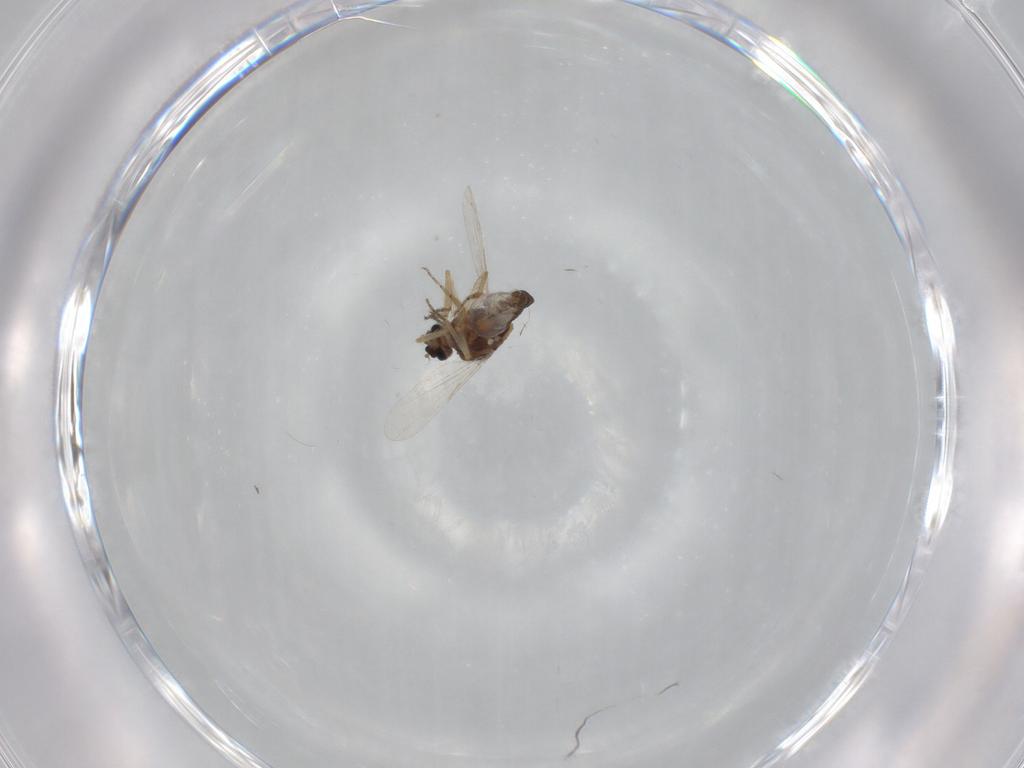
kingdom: Animalia
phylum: Arthropoda
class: Insecta
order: Diptera
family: Ceratopogonidae
